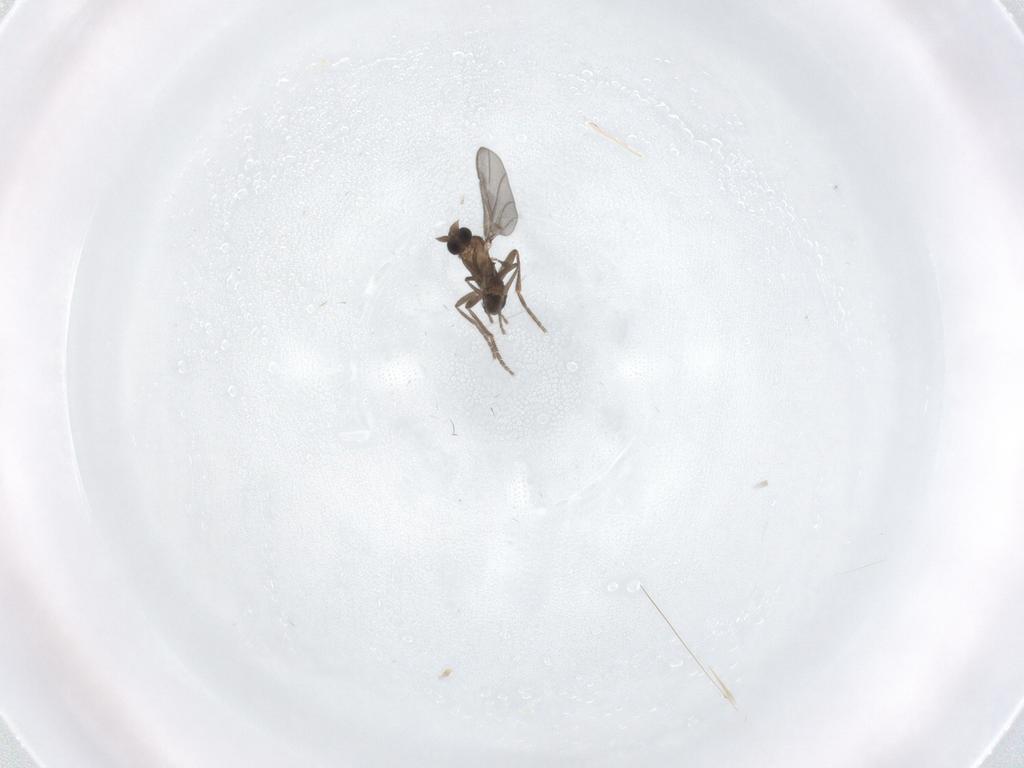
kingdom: Animalia
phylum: Arthropoda
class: Insecta
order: Diptera
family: Phoridae
